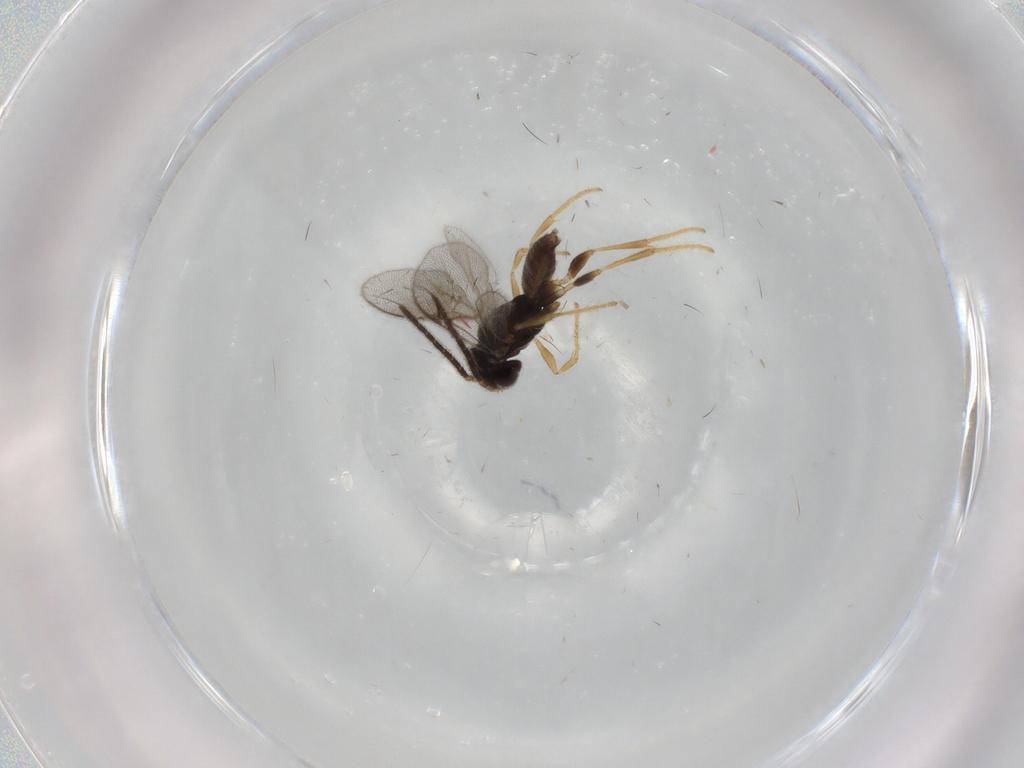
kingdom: Animalia
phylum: Arthropoda
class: Insecta
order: Hymenoptera
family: Dryinidae
